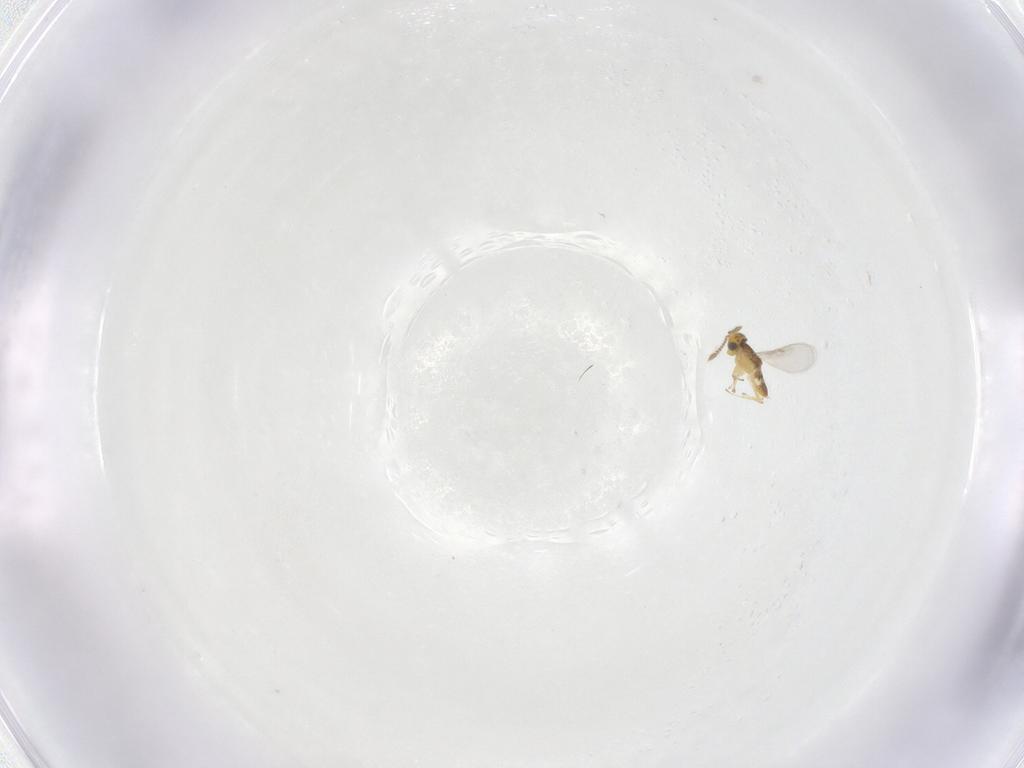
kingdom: Animalia
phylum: Arthropoda
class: Insecta
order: Hymenoptera
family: Encyrtidae
